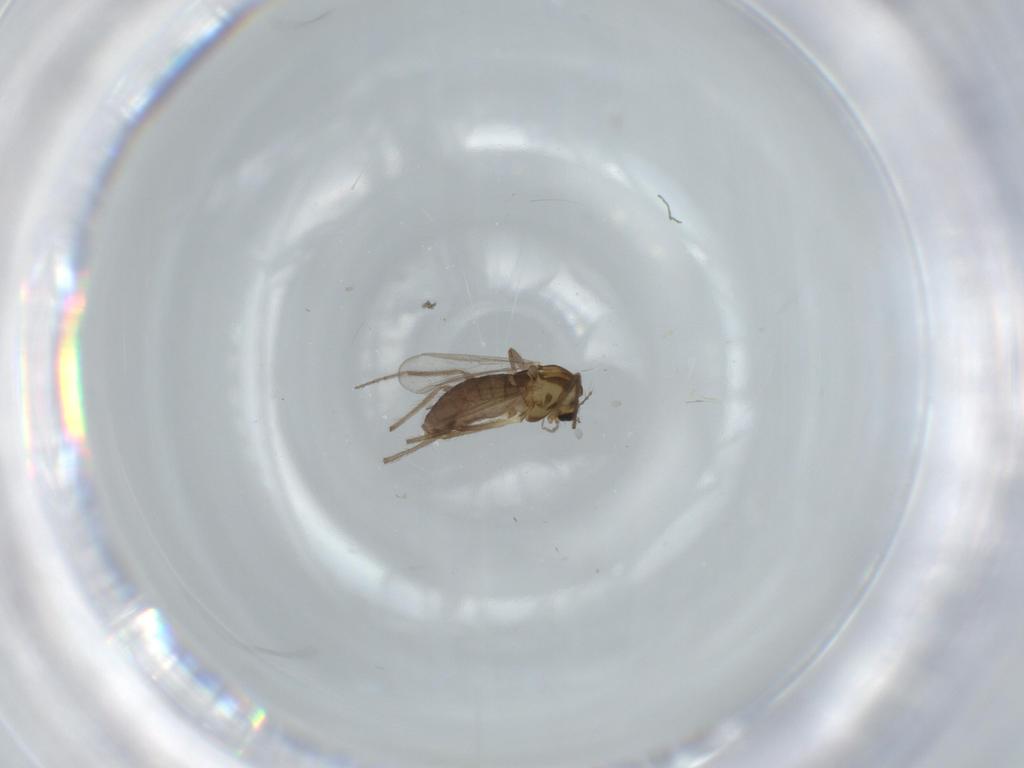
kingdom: Animalia
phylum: Arthropoda
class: Insecta
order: Diptera
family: Chironomidae
